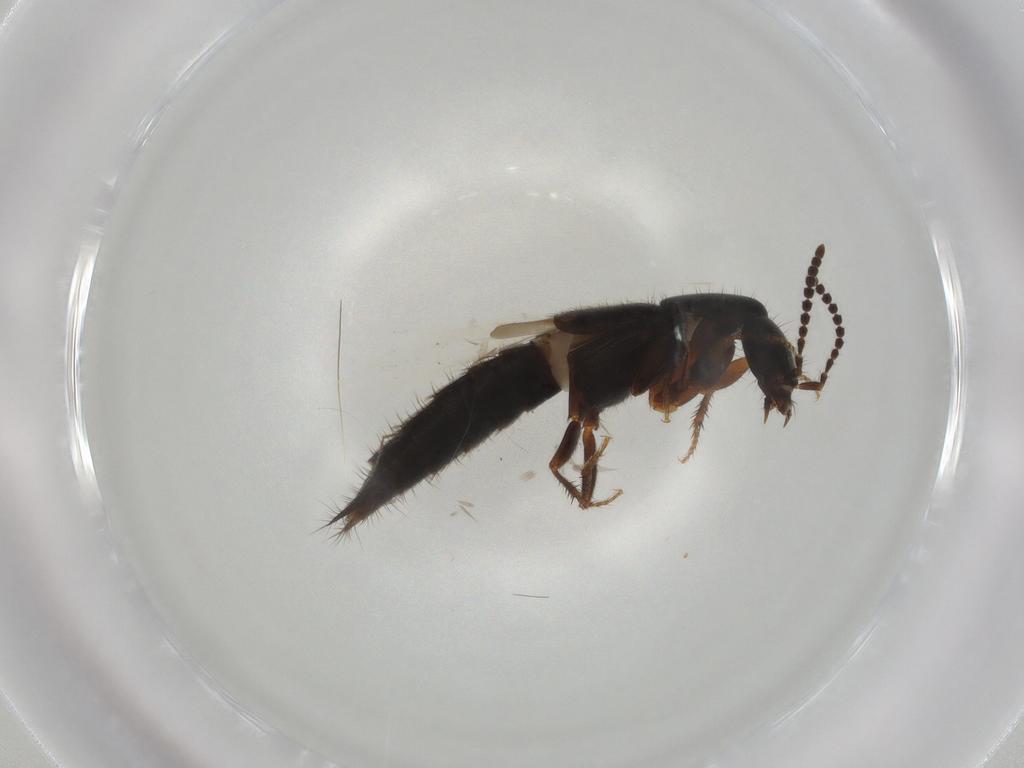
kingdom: Animalia
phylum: Arthropoda
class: Insecta
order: Coleoptera
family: Staphylinidae
